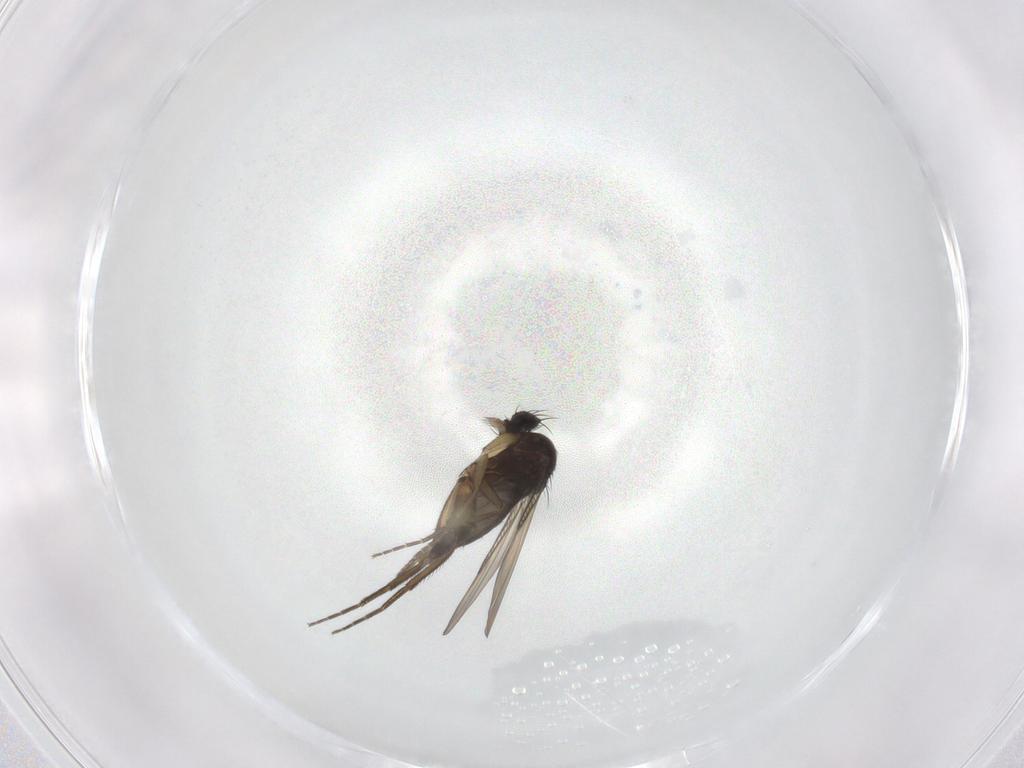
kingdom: Animalia
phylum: Arthropoda
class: Insecta
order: Diptera
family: Phoridae
